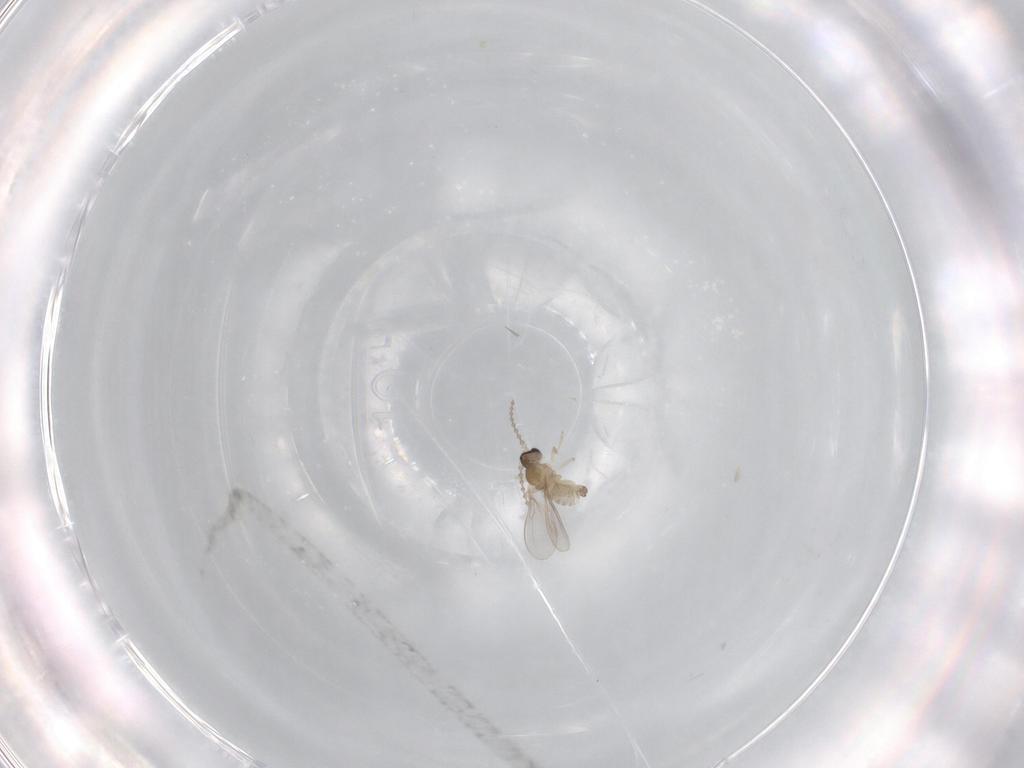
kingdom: Animalia
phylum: Arthropoda
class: Insecta
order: Diptera
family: Cecidomyiidae
